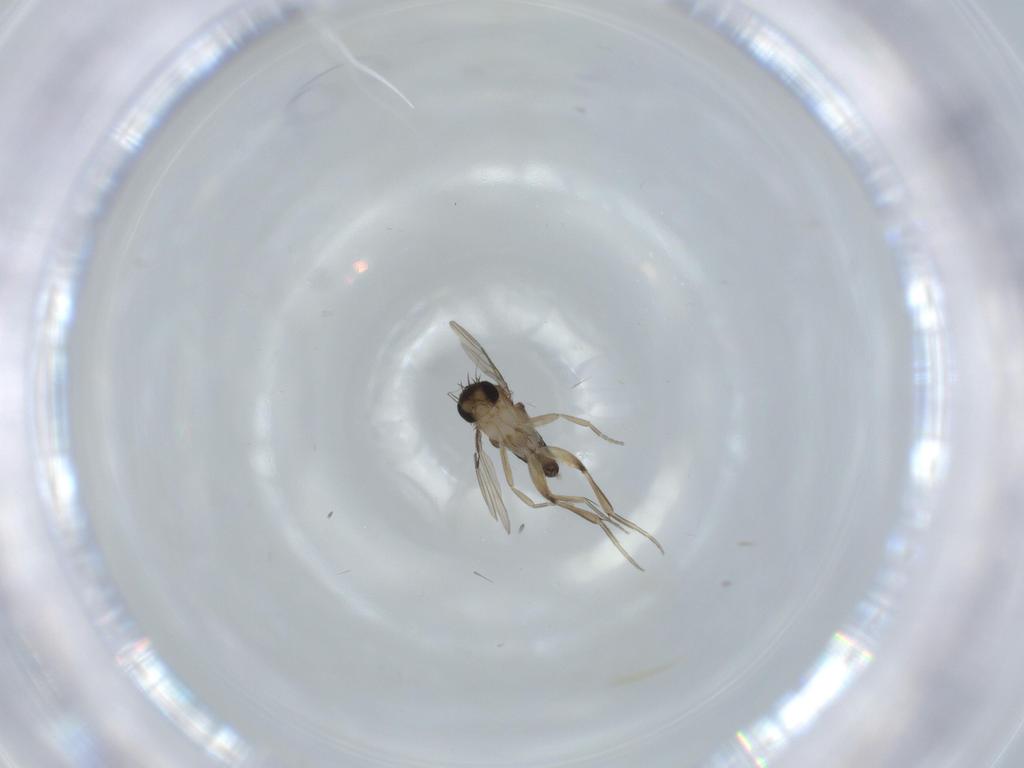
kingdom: Animalia
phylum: Arthropoda
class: Insecta
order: Diptera
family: Phoridae
